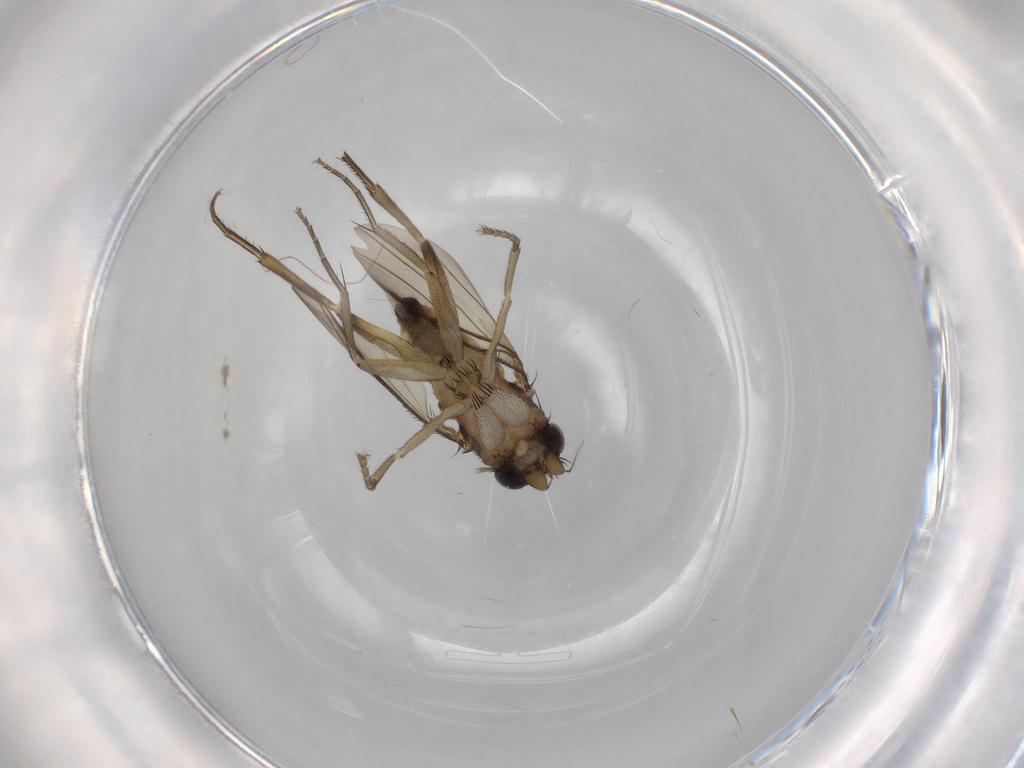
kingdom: Animalia
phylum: Arthropoda
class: Insecta
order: Diptera
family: Phoridae
